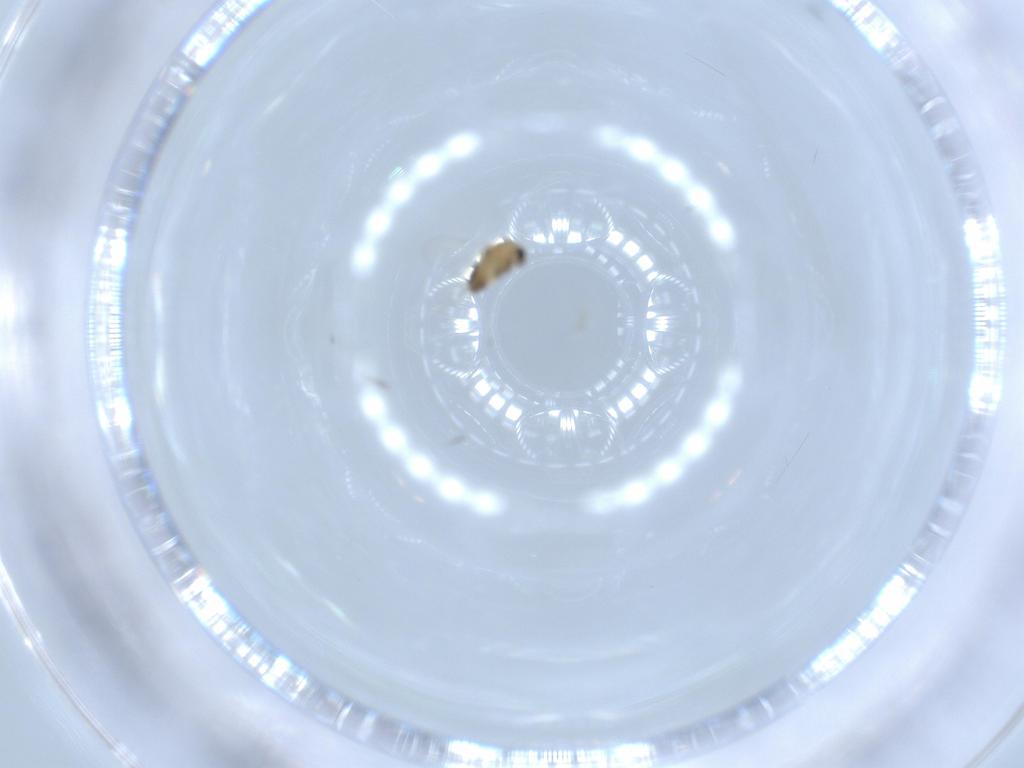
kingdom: Animalia
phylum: Arthropoda
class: Insecta
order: Diptera
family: Chironomidae
